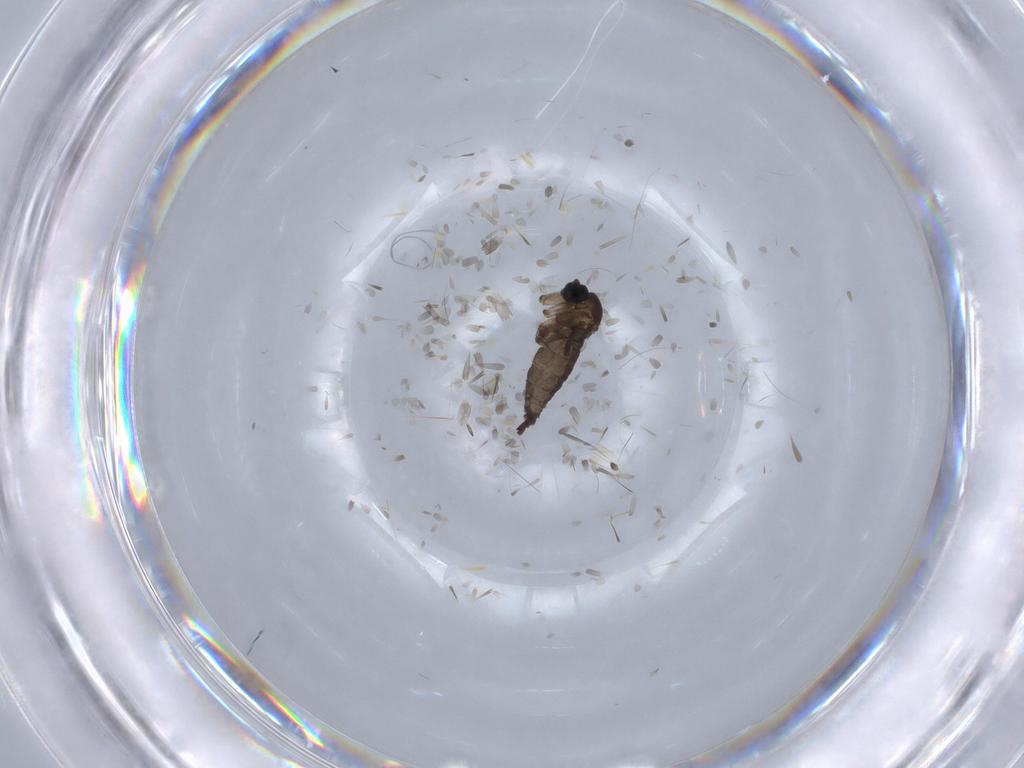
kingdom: Animalia
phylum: Arthropoda
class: Insecta
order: Diptera
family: Sciaridae
